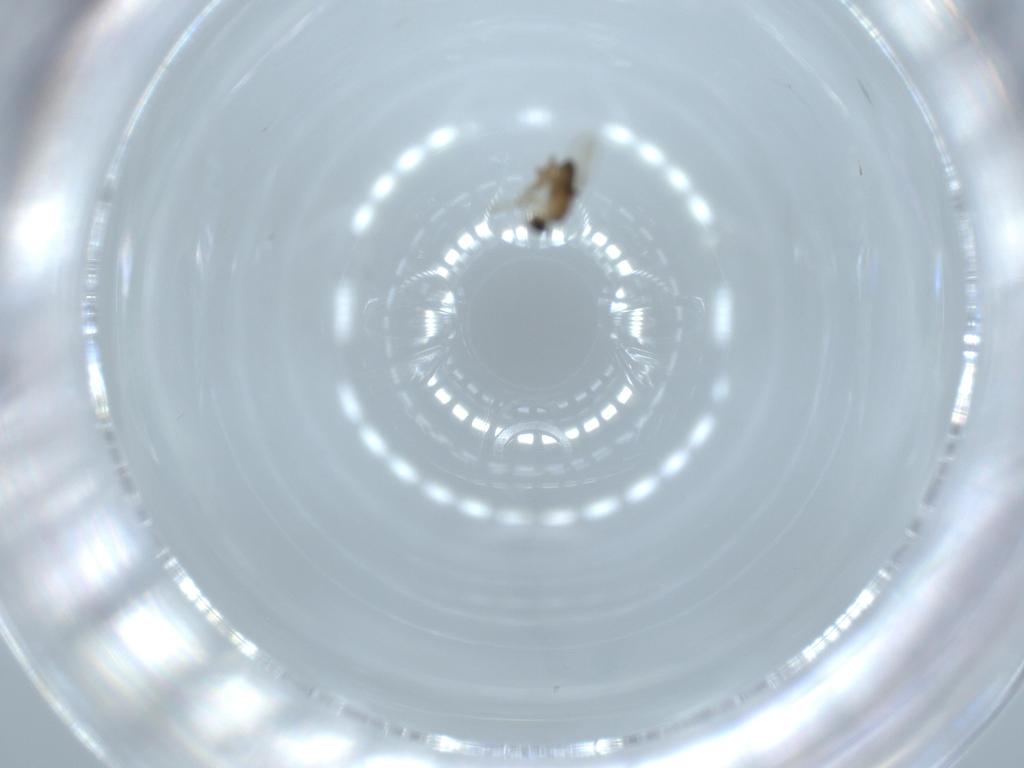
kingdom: Animalia
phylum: Arthropoda
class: Insecta
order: Diptera
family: Phoridae
